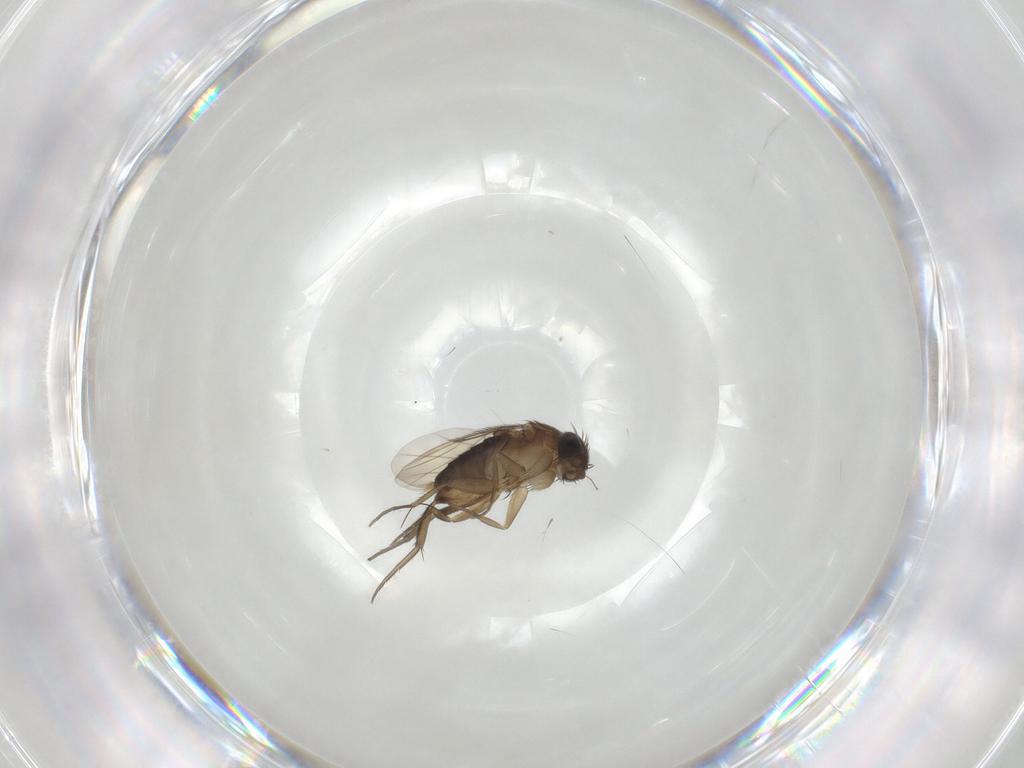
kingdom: Animalia
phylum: Arthropoda
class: Insecta
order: Diptera
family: Phoridae
